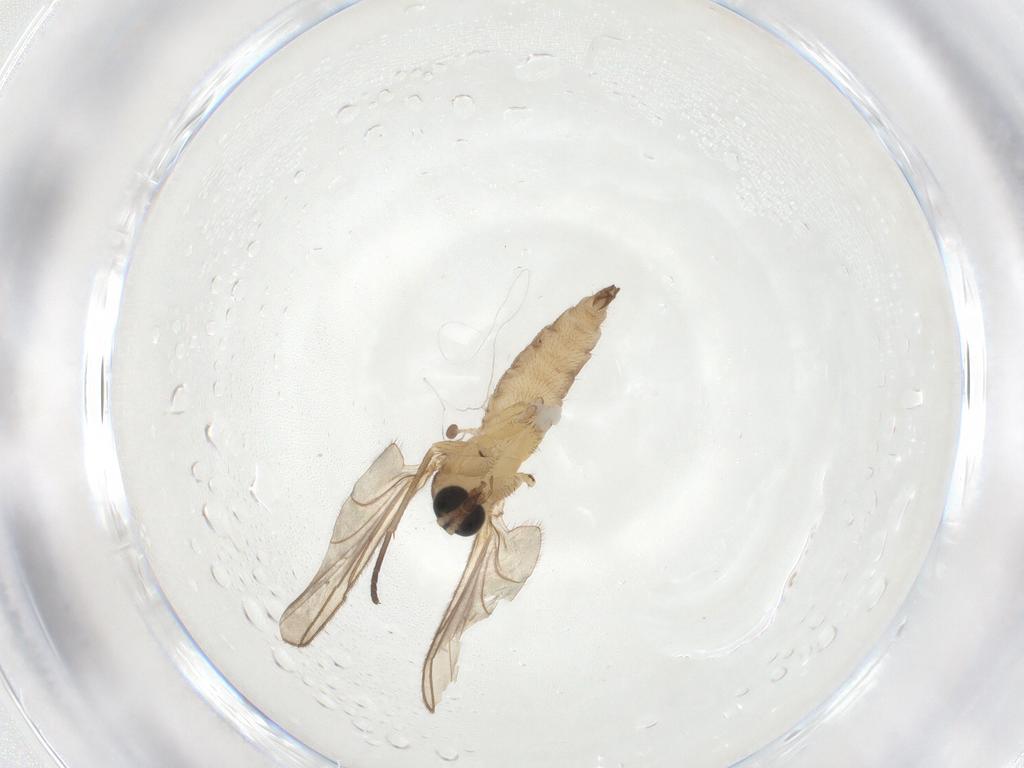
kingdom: Animalia
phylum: Arthropoda
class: Insecta
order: Diptera
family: Sciaridae
